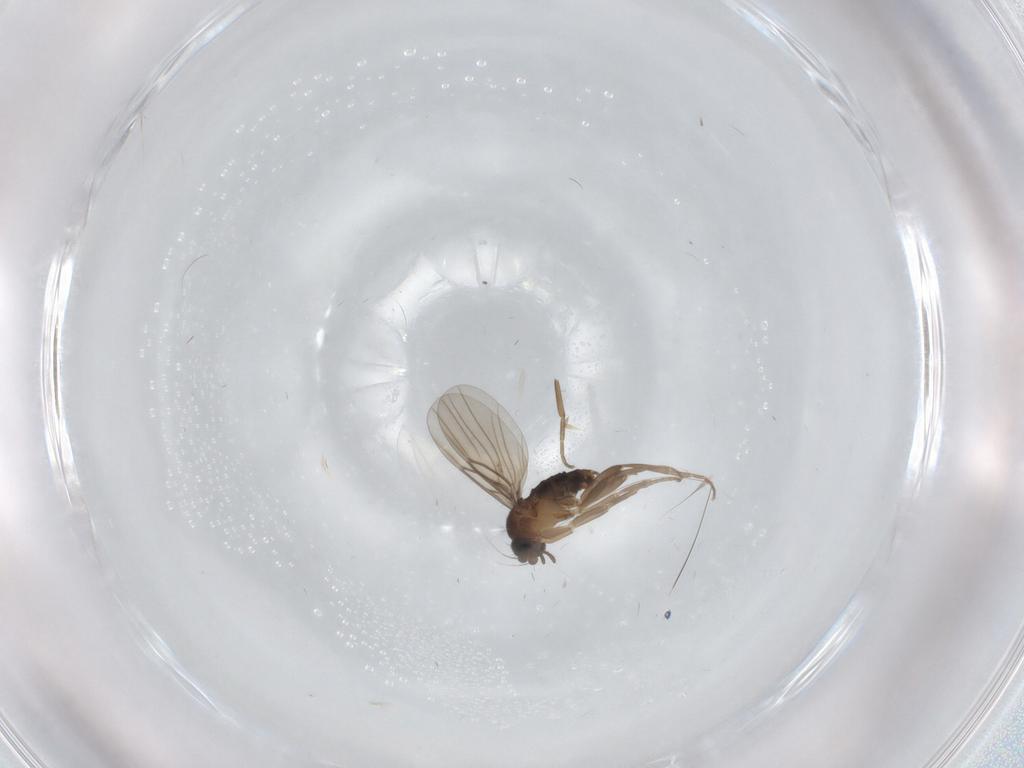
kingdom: Animalia
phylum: Arthropoda
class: Insecta
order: Diptera
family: Phoridae
